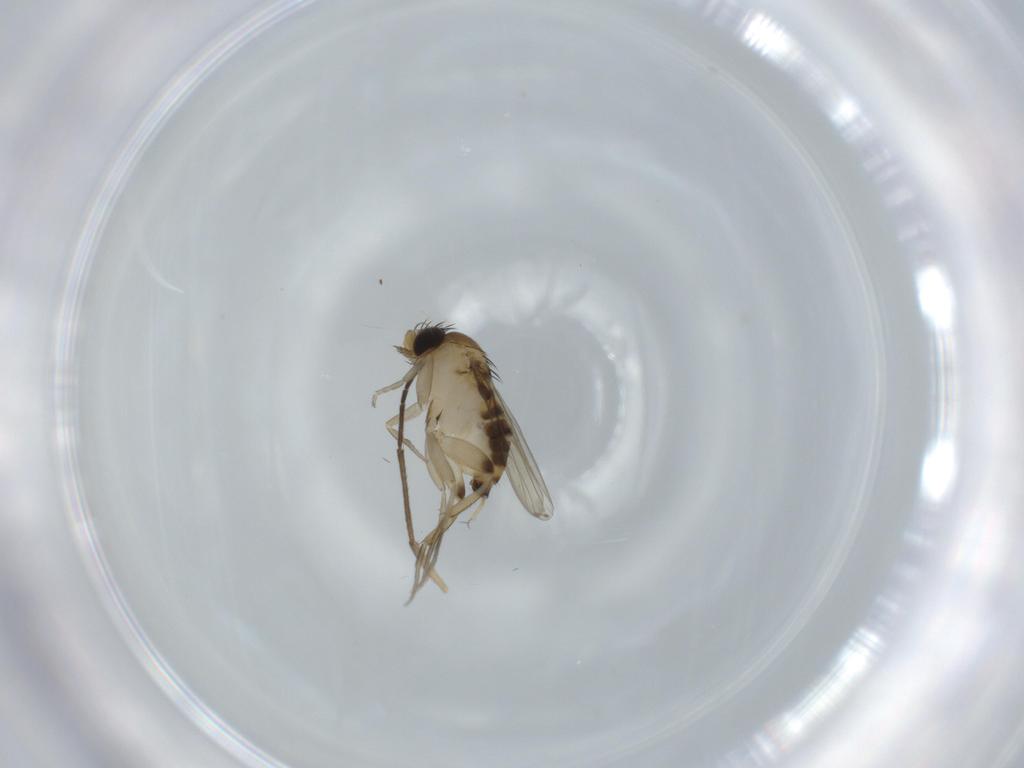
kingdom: Animalia
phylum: Arthropoda
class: Insecta
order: Diptera
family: Phoridae
